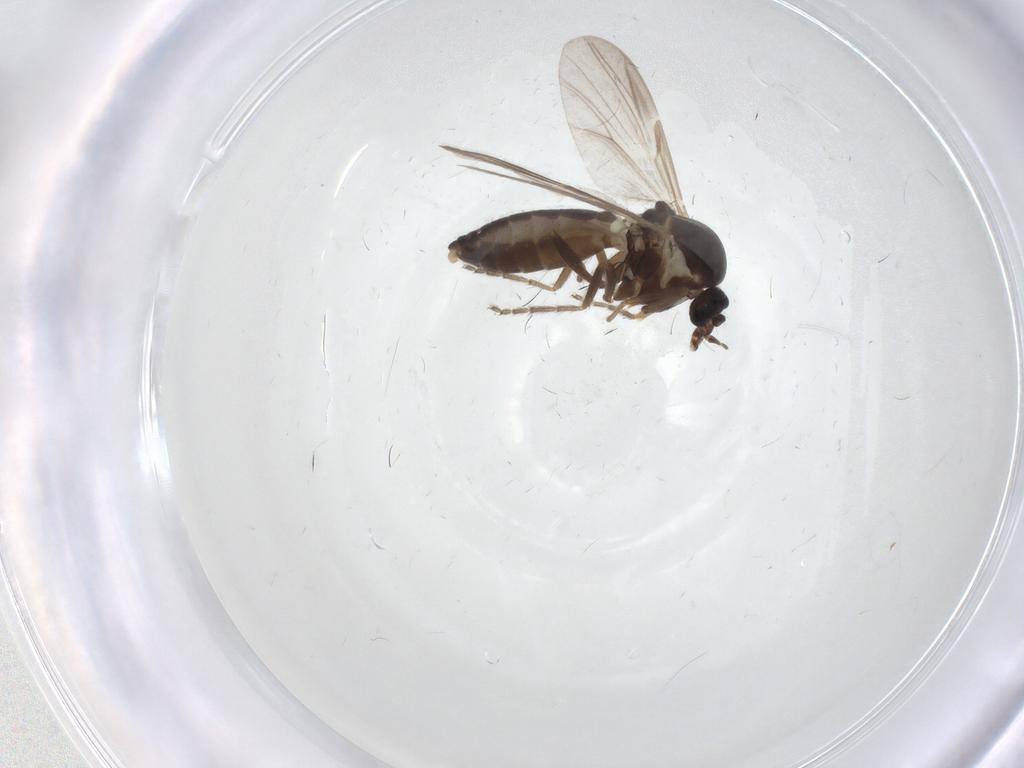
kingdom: Animalia
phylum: Arthropoda
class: Insecta
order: Diptera
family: Ceratopogonidae
